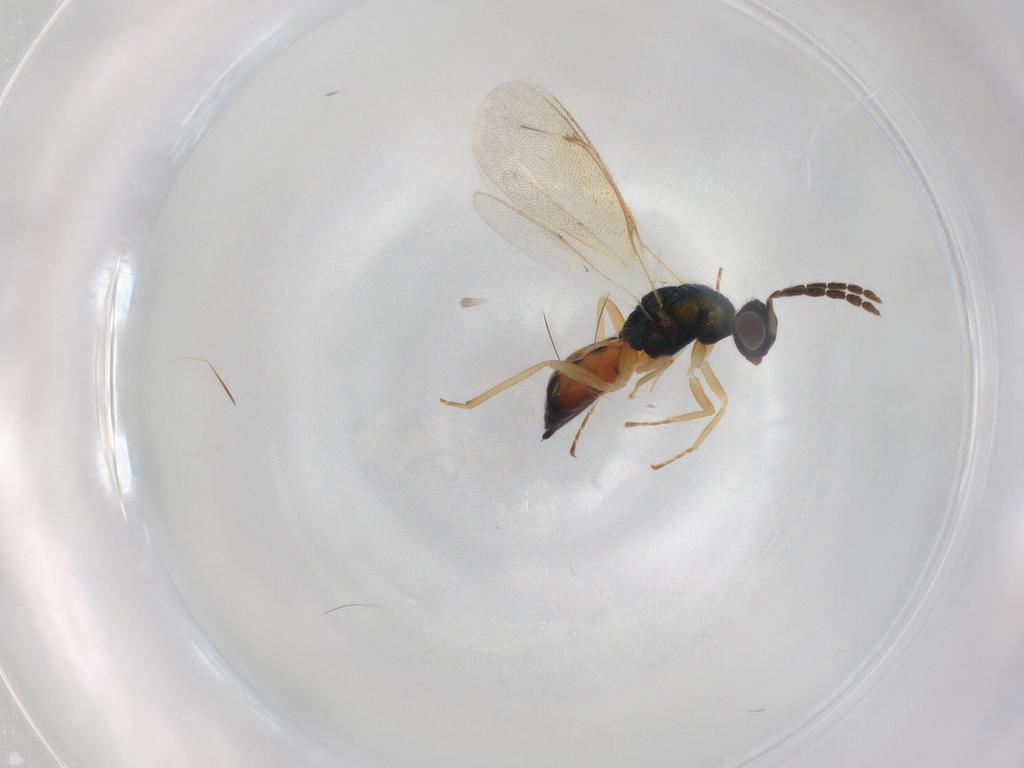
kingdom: Animalia
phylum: Arthropoda
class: Insecta
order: Hymenoptera
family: Eulophidae
